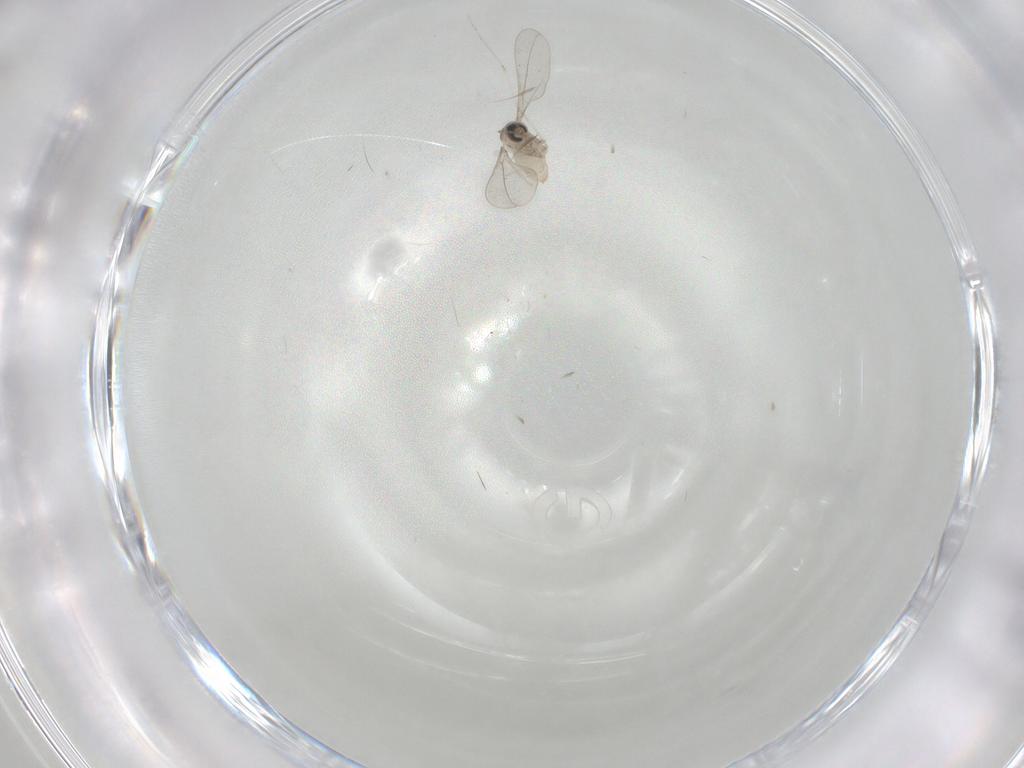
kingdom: Animalia
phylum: Arthropoda
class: Insecta
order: Diptera
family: Cecidomyiidae
